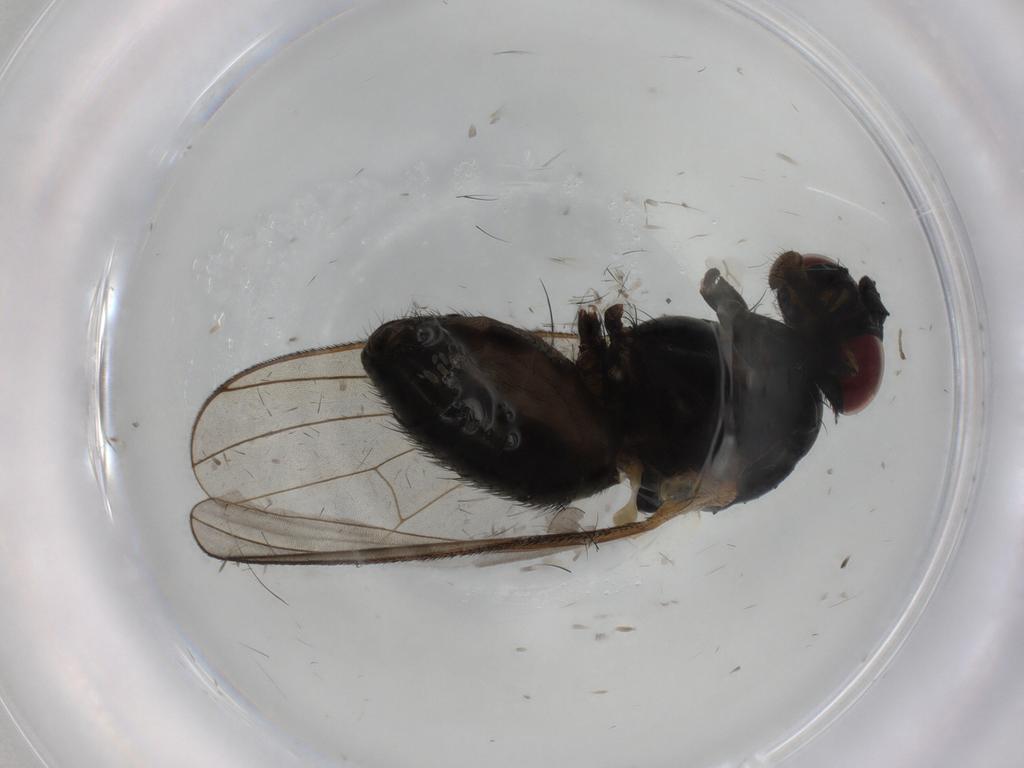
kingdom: Animalia
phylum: Arthropoda
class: Insecta
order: Diptera
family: Fannia
